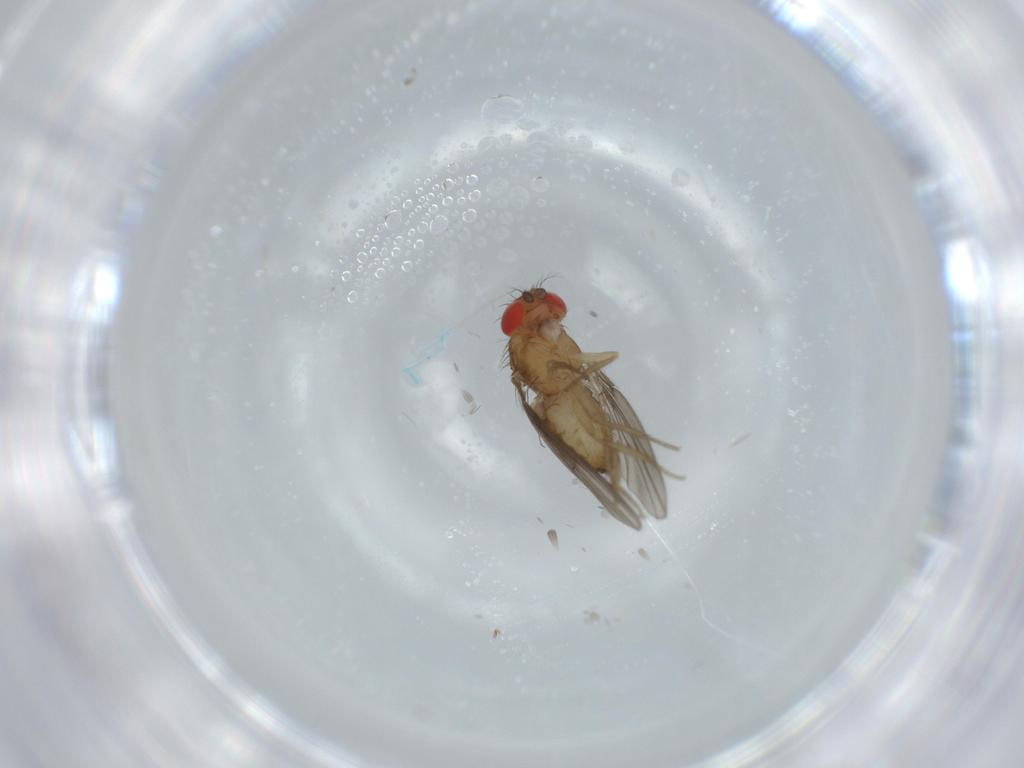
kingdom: Animalia
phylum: Arthropoda
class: Insecta
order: Diptera
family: Drosophilidae
